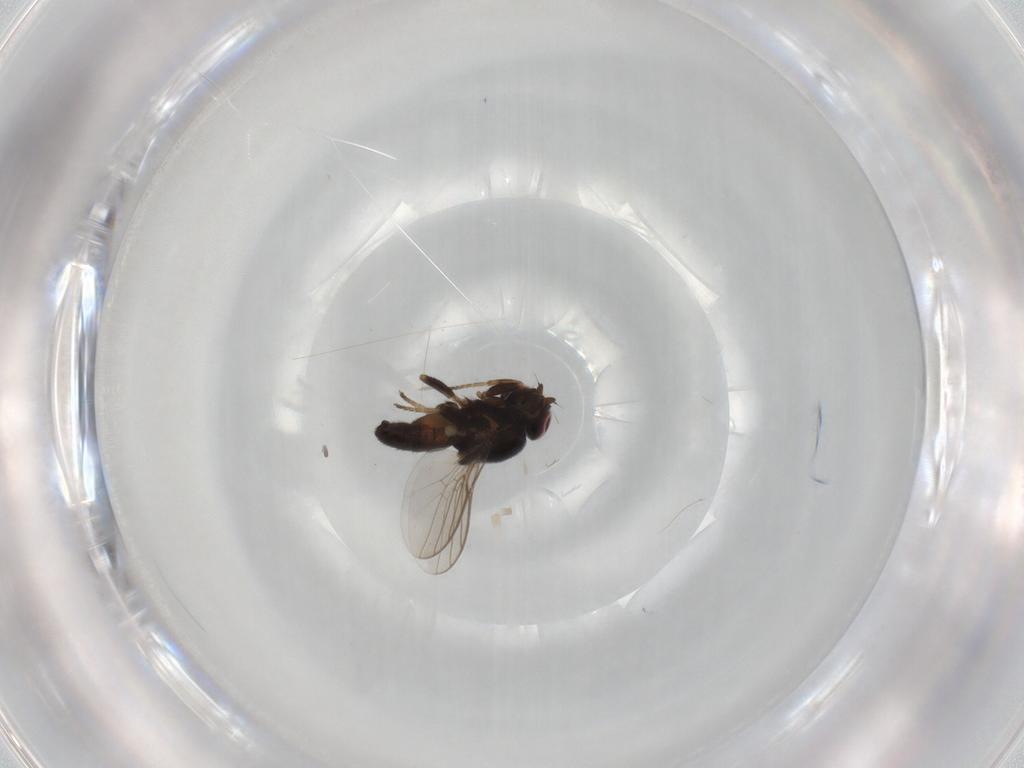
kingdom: Animalia
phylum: Arthropoda
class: Insecta
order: Diptera
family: Chloropidae
